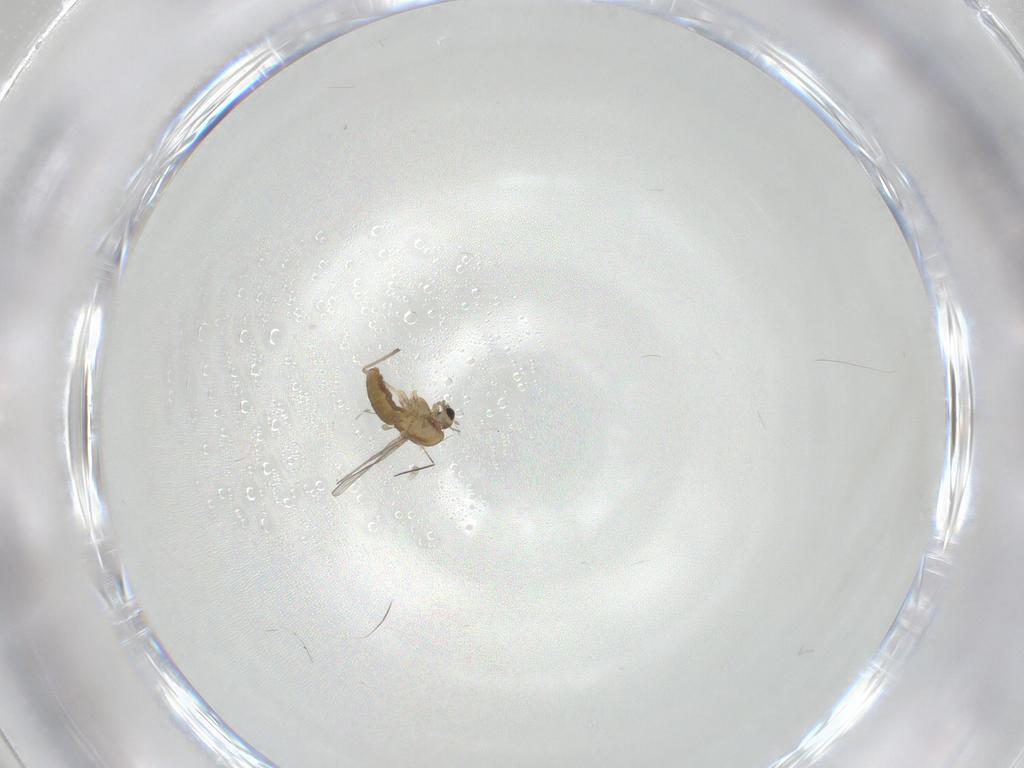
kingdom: Animalia
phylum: Arthropoda
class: Insecta
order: Diptera
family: Chironomidae
